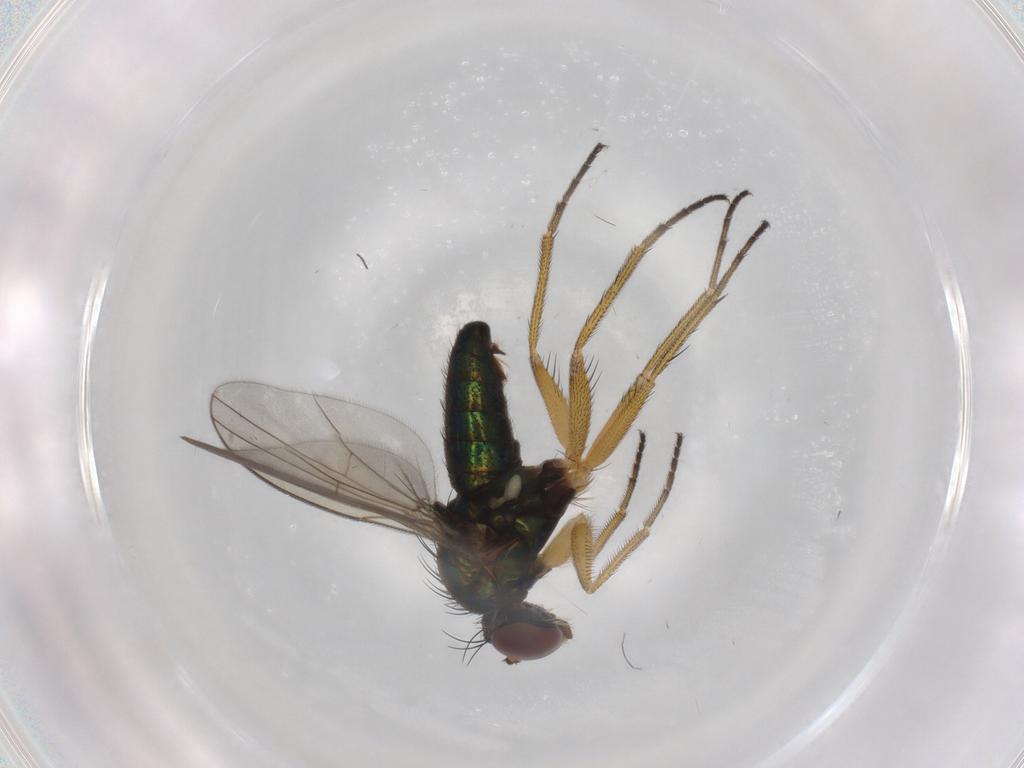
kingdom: Animalia
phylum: Arthropoda
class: Insecta
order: Diptera
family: Dolichopodidae
